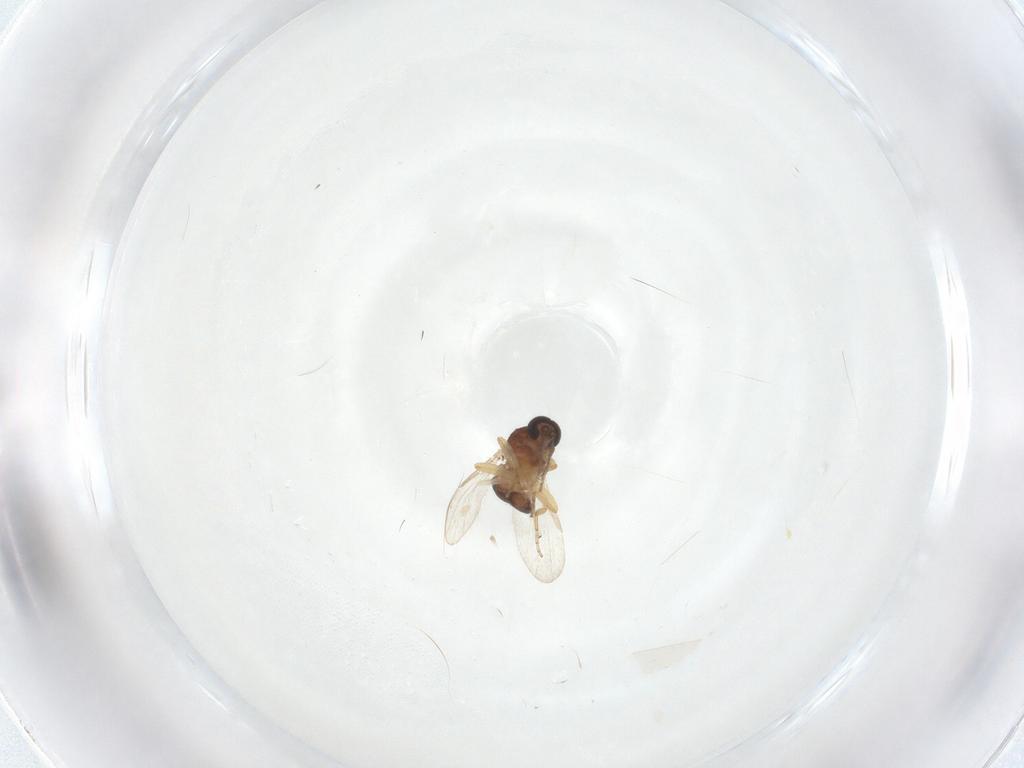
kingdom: Animalia
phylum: Arthropoda
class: Insecta
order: Diptera
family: Ceratopogonidae
